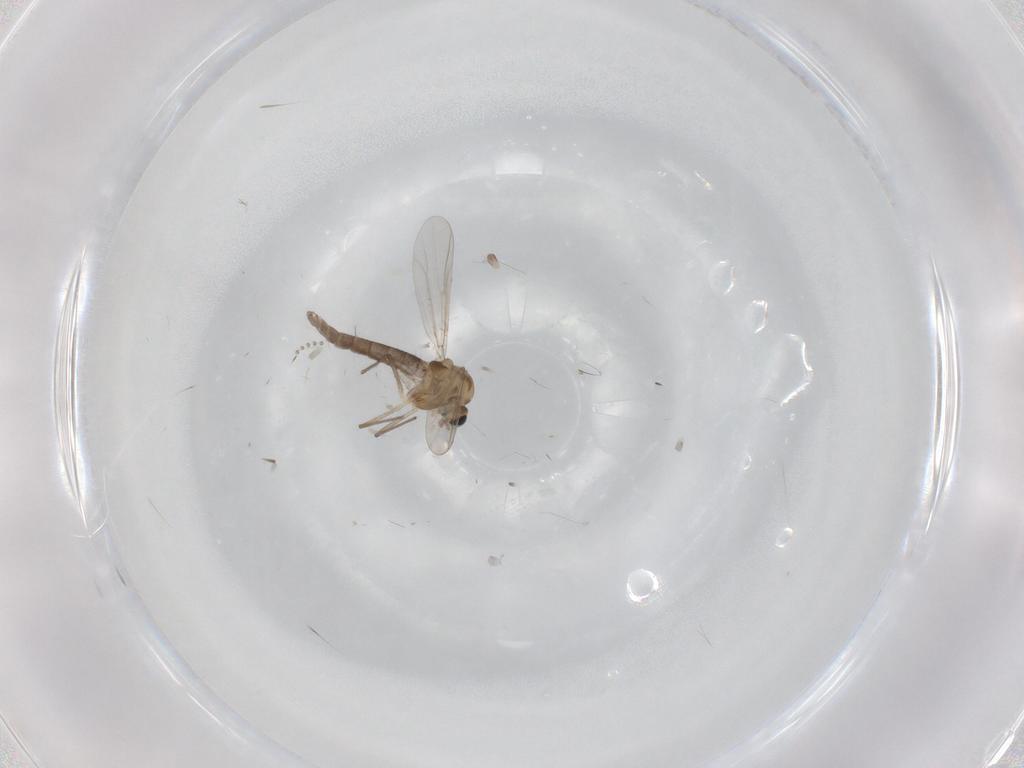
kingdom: Animalia
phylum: Arthropoda
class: Insecta
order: Diptera
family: Chironomidae
